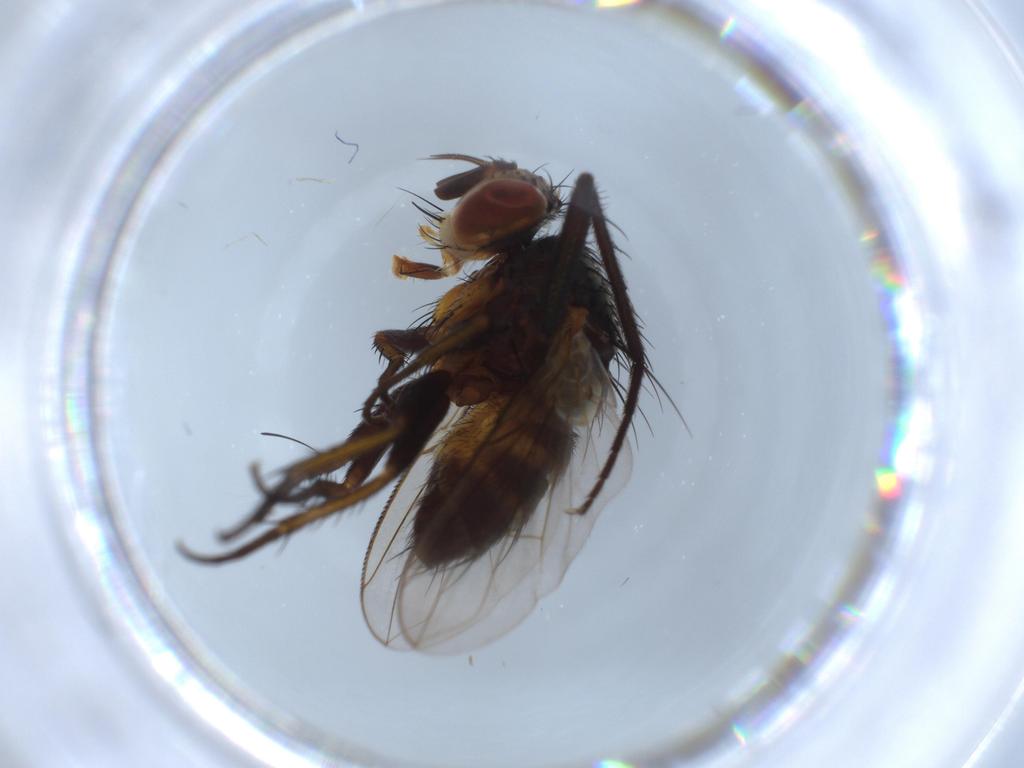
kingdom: Animalia
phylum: Arthropoda
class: Insecta
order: Diptera
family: Tachinidae
